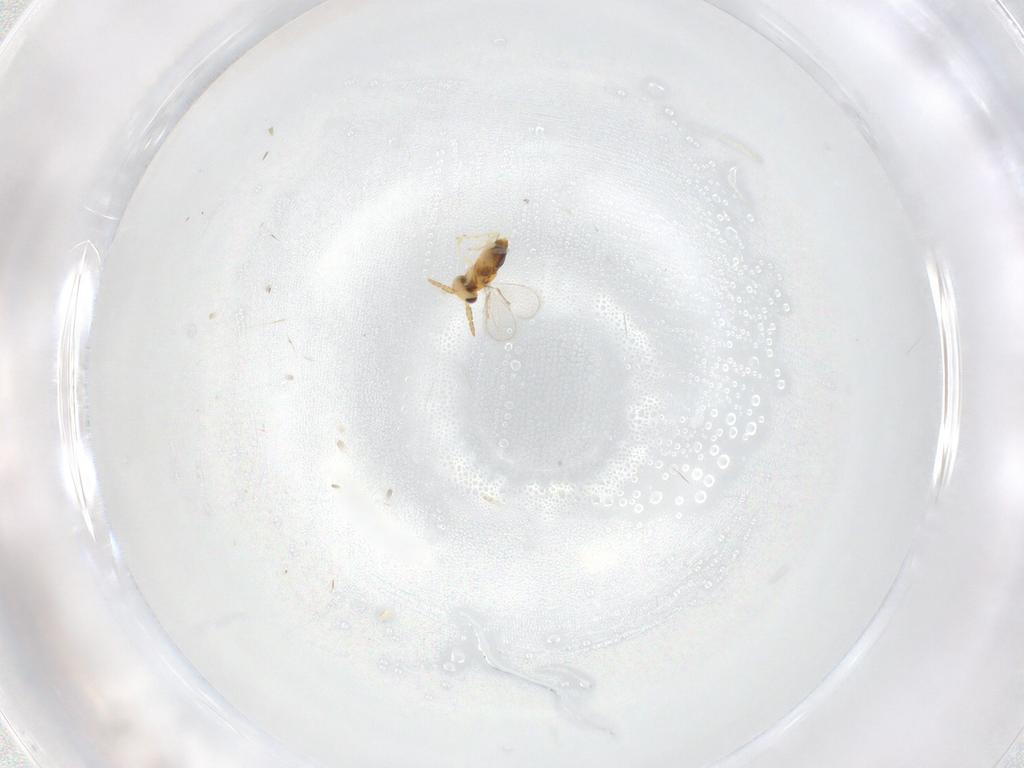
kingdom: Animalia
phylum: Arthropoda
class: Insecta
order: Hymenoptera
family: Aphelinidae
